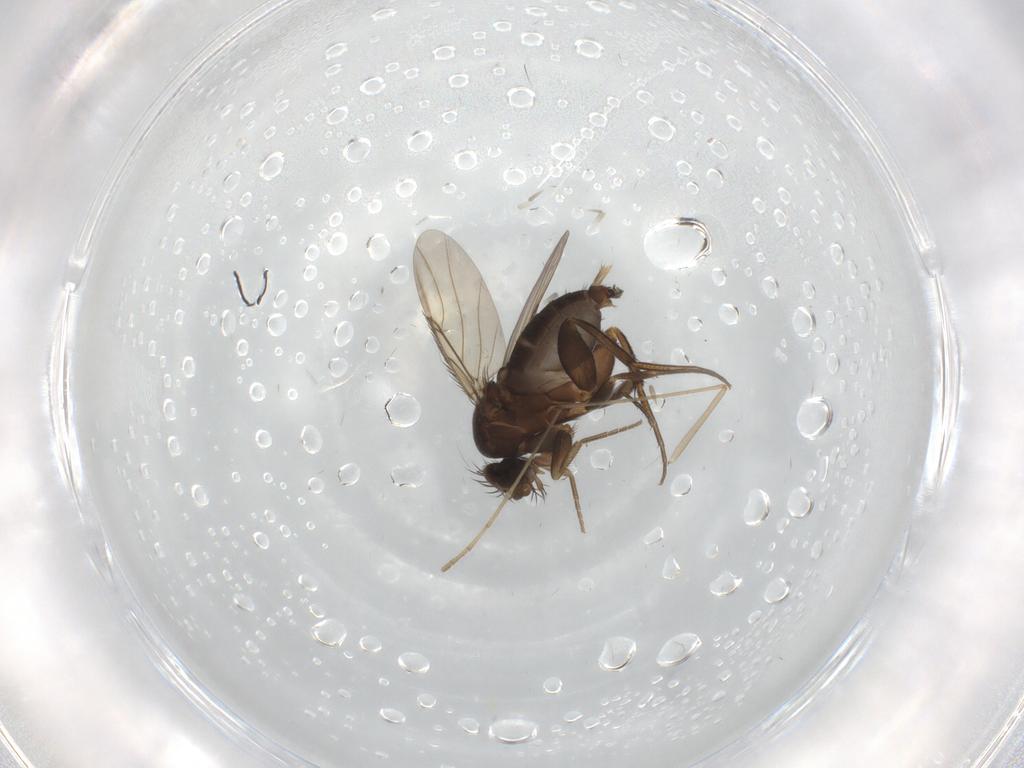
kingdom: Animalia
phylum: Arthropoda
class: Insecta
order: Diptera
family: Psychodidae
